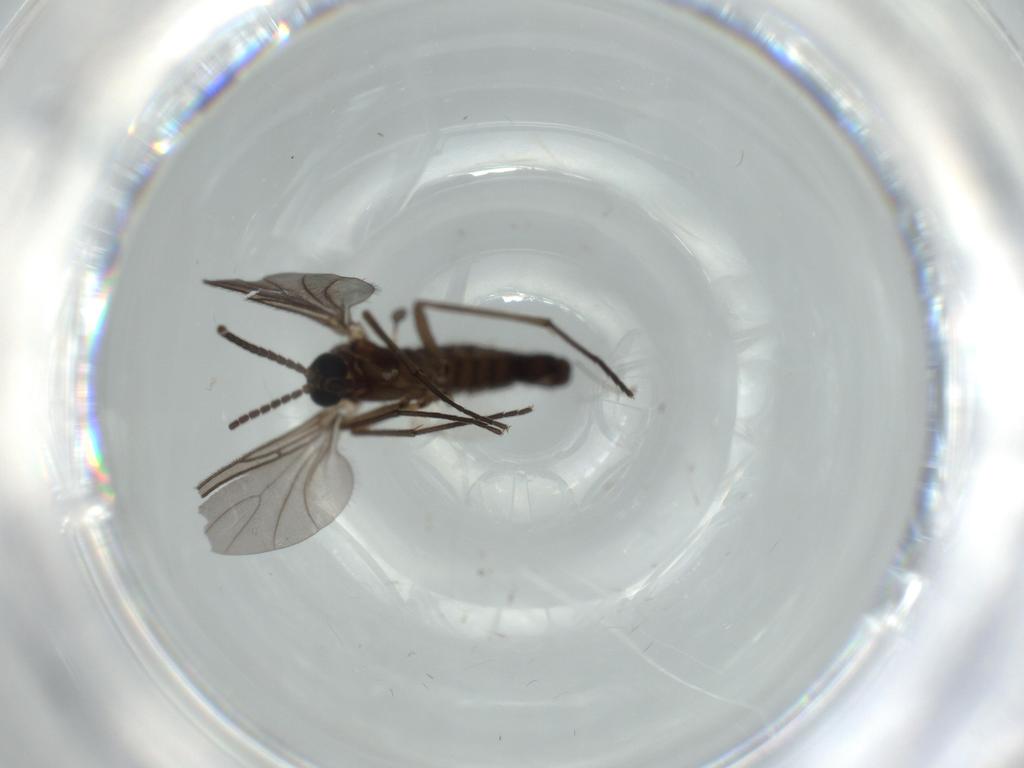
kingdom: Animalia
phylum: Arthropoda
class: Insecta
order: Diptera
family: Sciaridae
